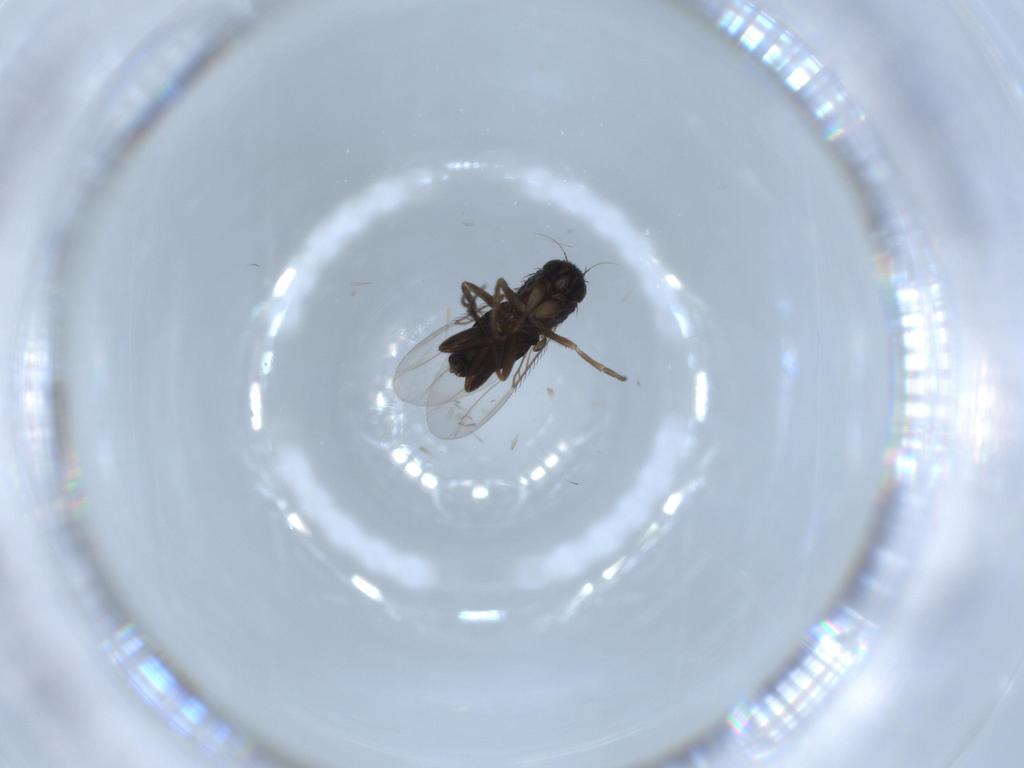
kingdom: Animalia
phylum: Arthropoda
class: Insecta
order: Diptera
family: Phoridae
